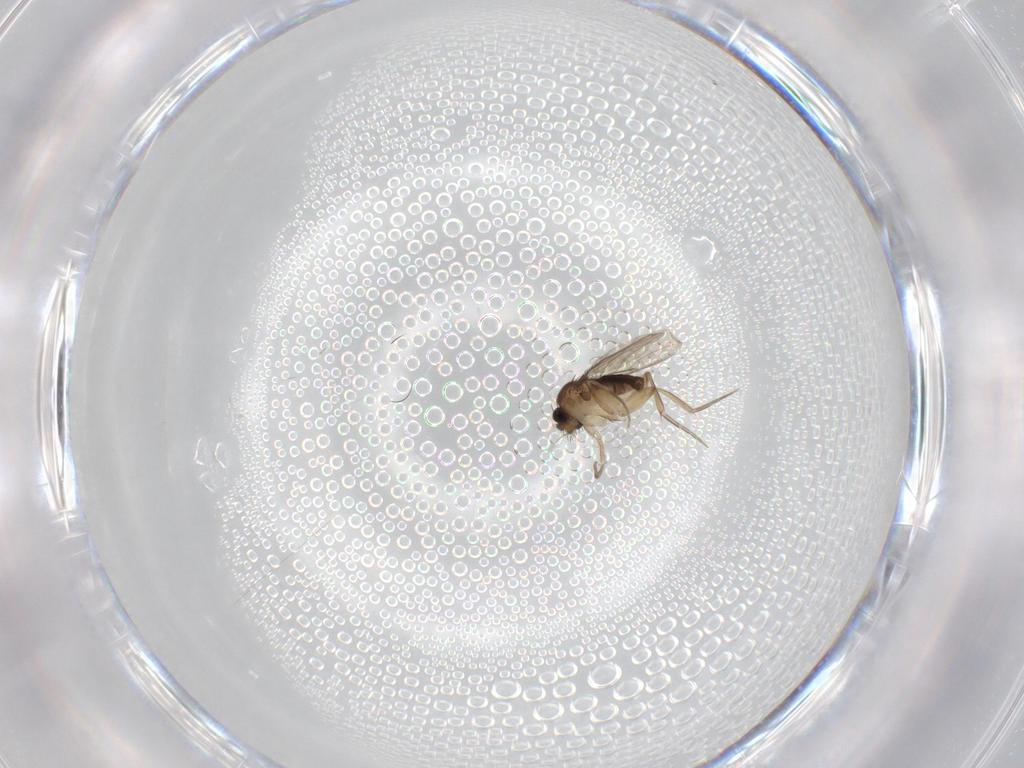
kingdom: Animalia
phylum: Arthropoda
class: Insecta
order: Diptera
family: Phoridae
